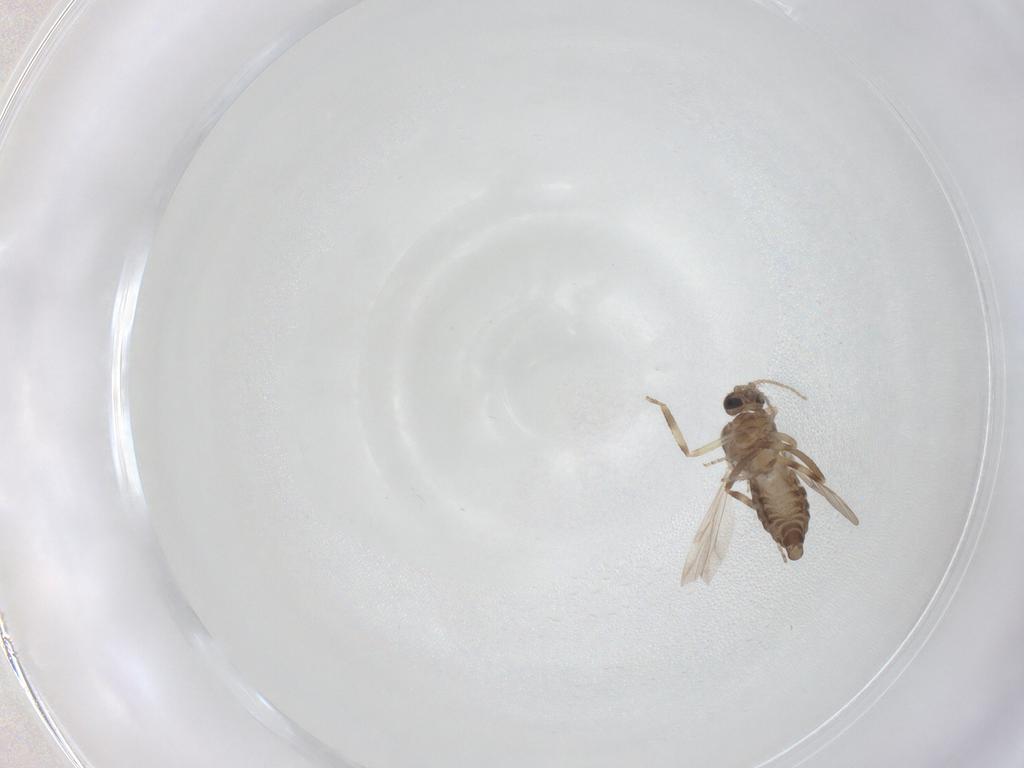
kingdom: Animalia
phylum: Arthropoda
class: Insecta
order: Diptera
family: Ceratopogonidae
